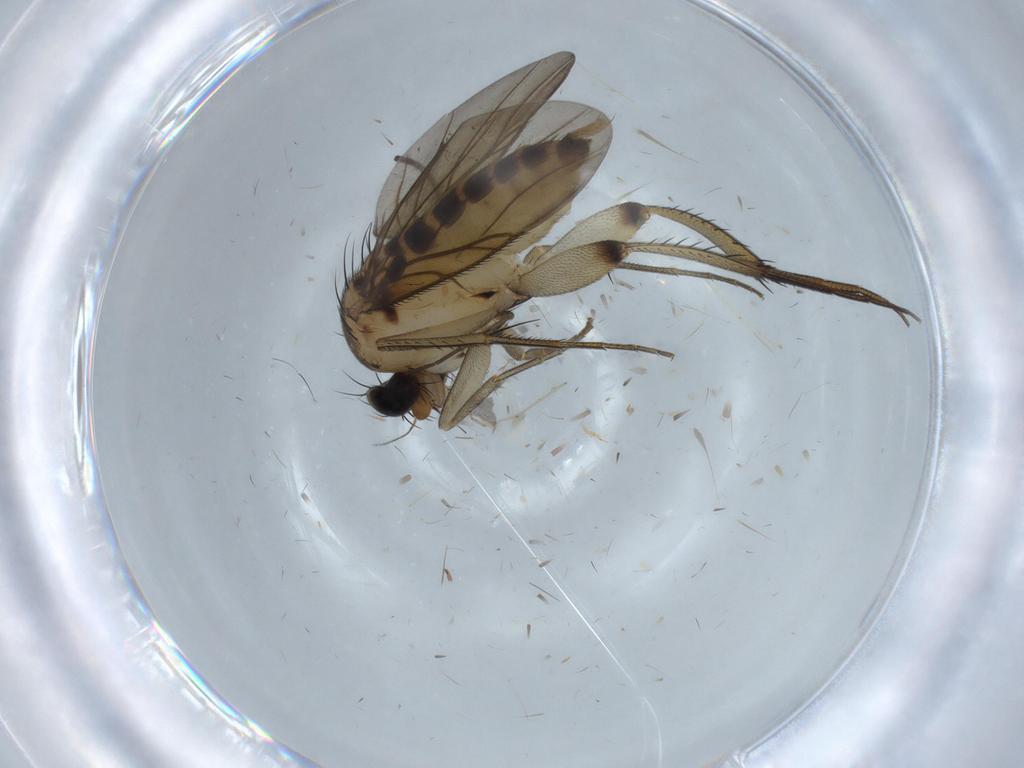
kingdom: Animalia
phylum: Arthropoda
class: Insecta
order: Diptera
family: Phoridae
